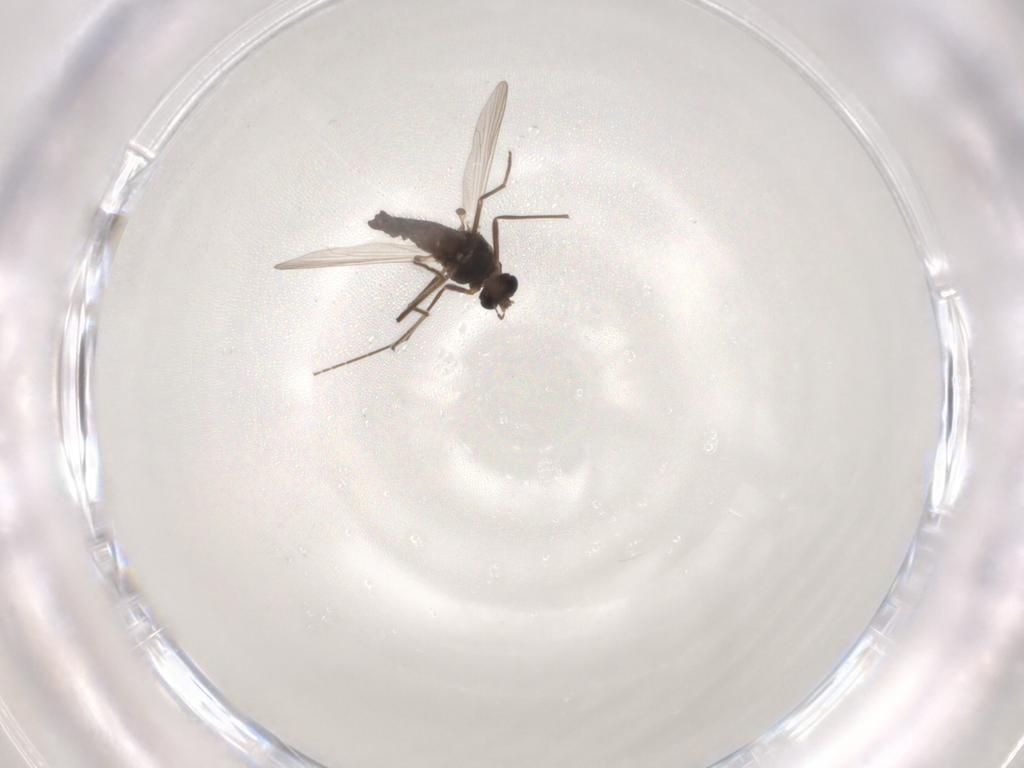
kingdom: Animalia
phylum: Arthropoda
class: Insecta
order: Diptera
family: Chironomidae
